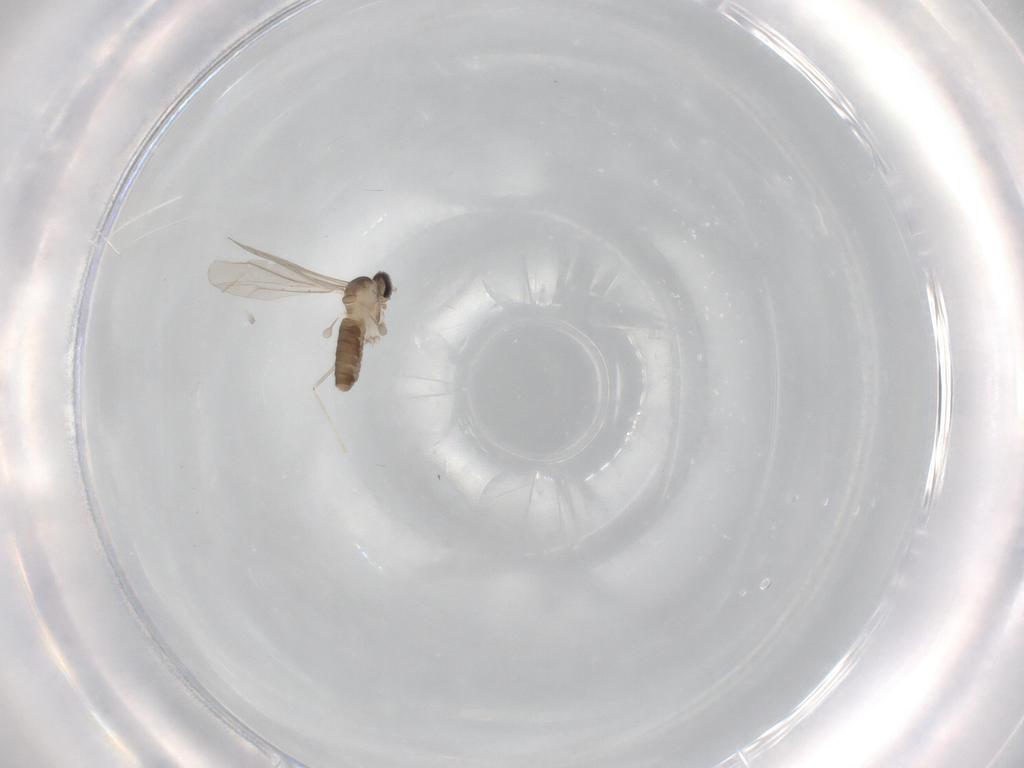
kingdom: Animalia
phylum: Arthropoda
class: Insecta
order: Diptera
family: Cecidomyiidae
